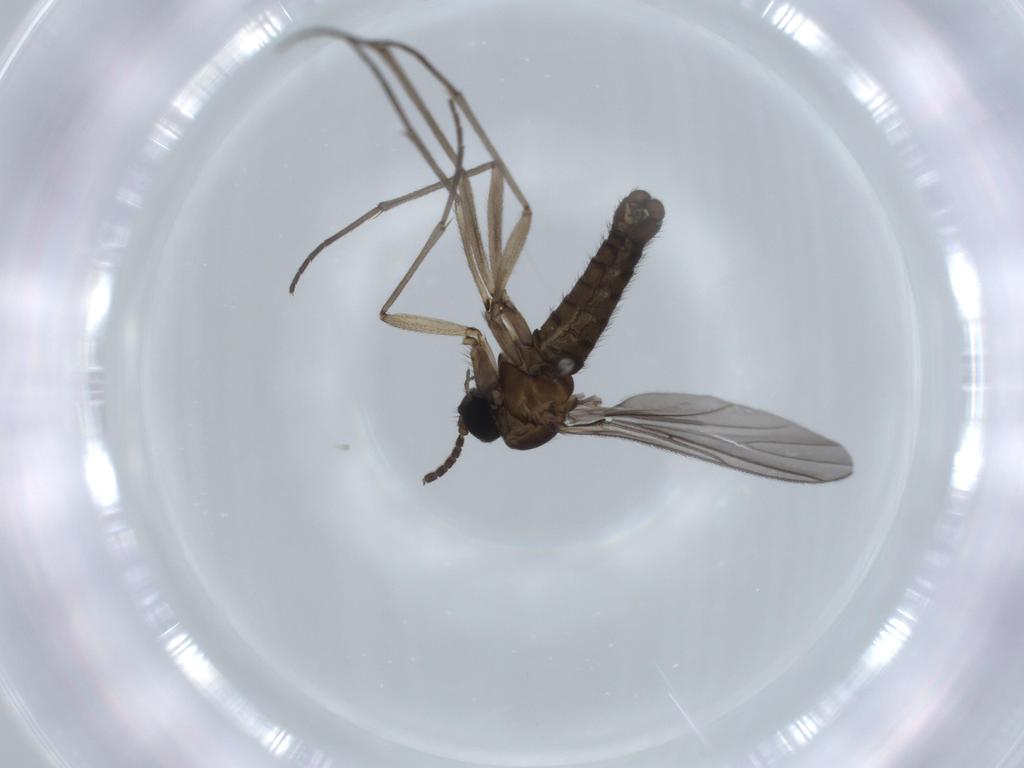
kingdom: Animalia
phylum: Arthropoda
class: Insecta
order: Diptera
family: Sciaridae
